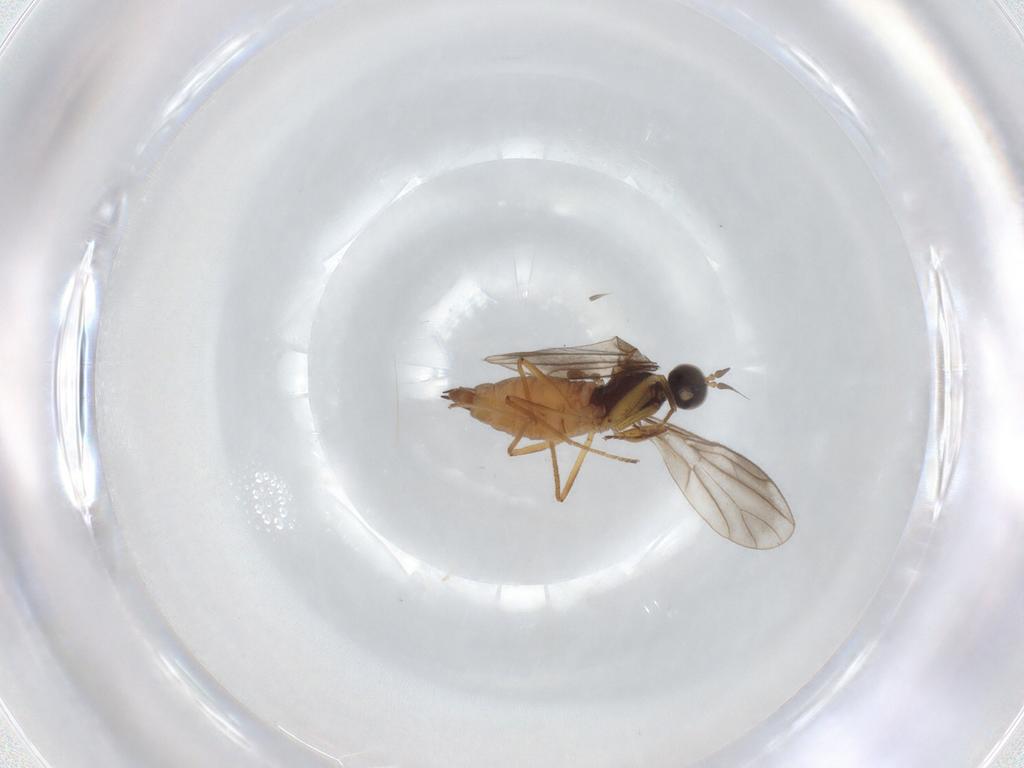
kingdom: Animalia
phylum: Arthropoda
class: Insecta
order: Diptera
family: Empididae
